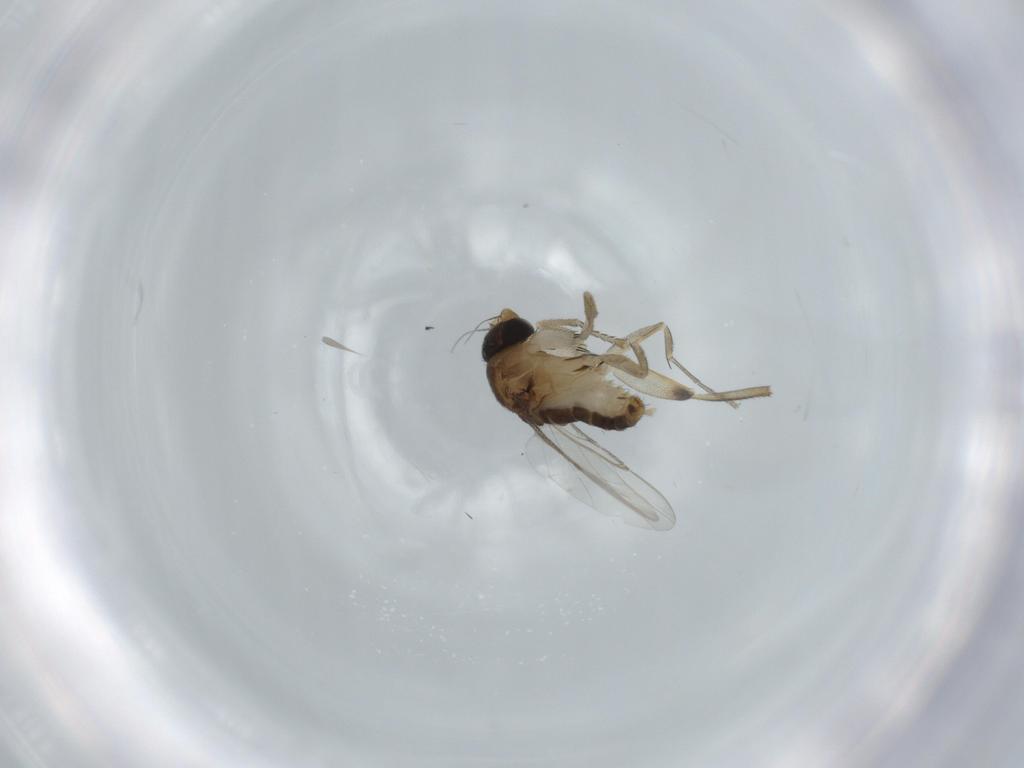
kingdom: Animalia
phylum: Arthropoda
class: Insecta
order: Diptera
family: Phoridae
